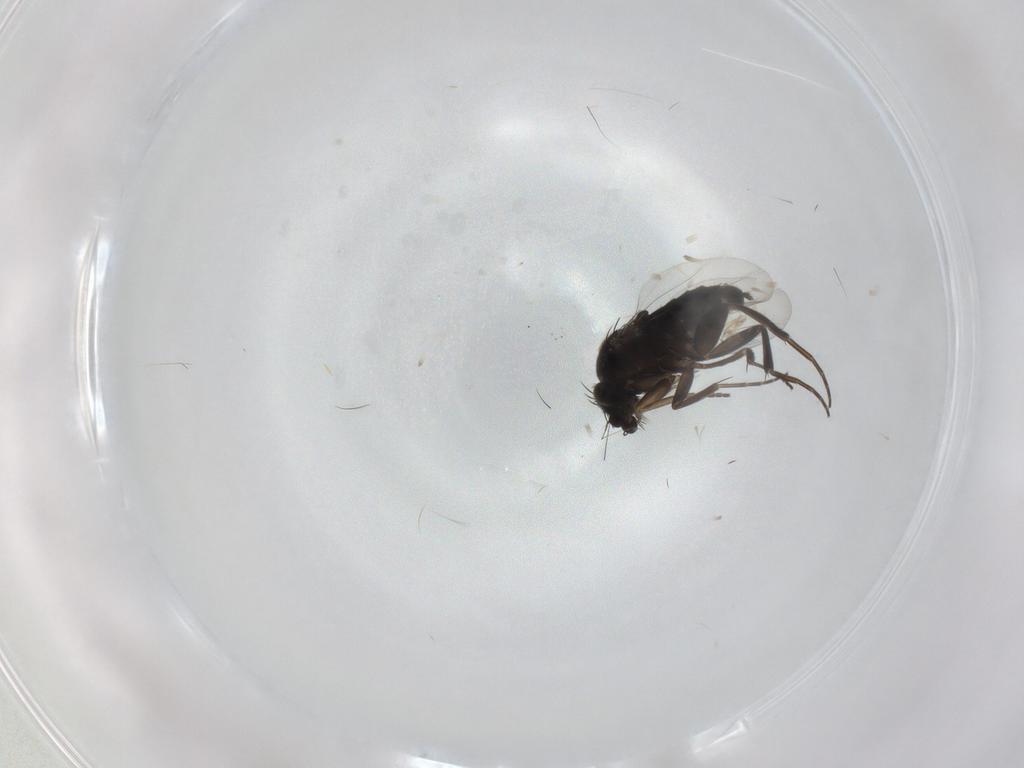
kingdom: Animalia
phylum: Arthropoda
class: Insecta
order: Diptera
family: Phoridae
